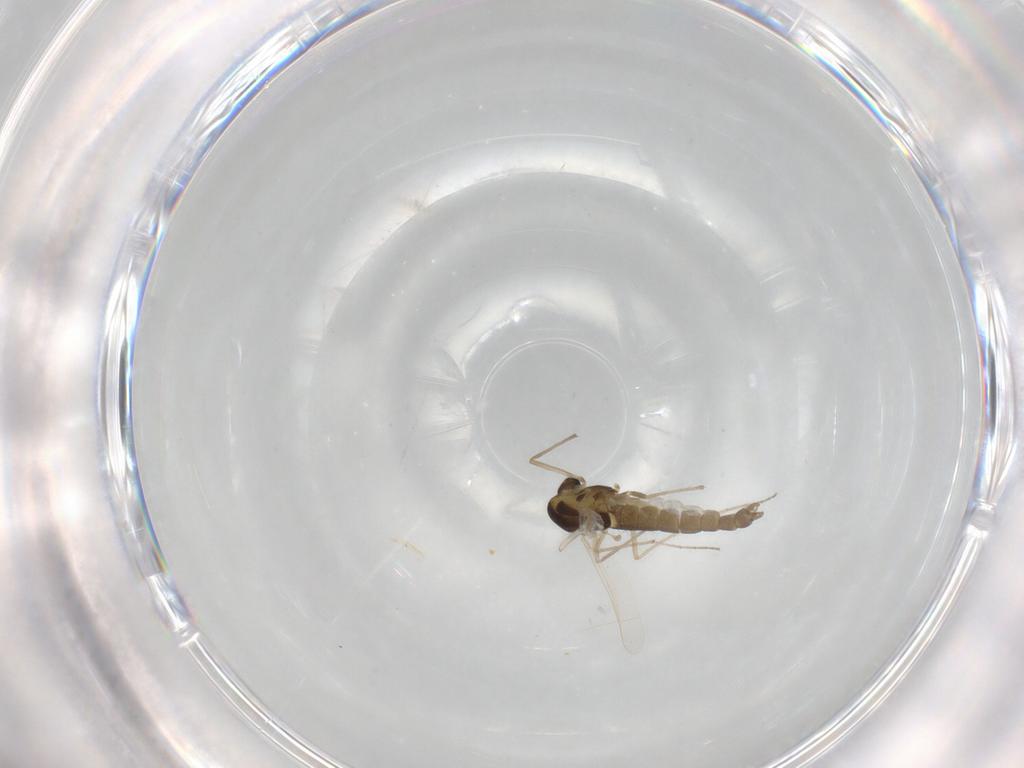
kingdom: Animalia
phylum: Arthropoda
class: Insecta
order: Diptera
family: Chironomidae
